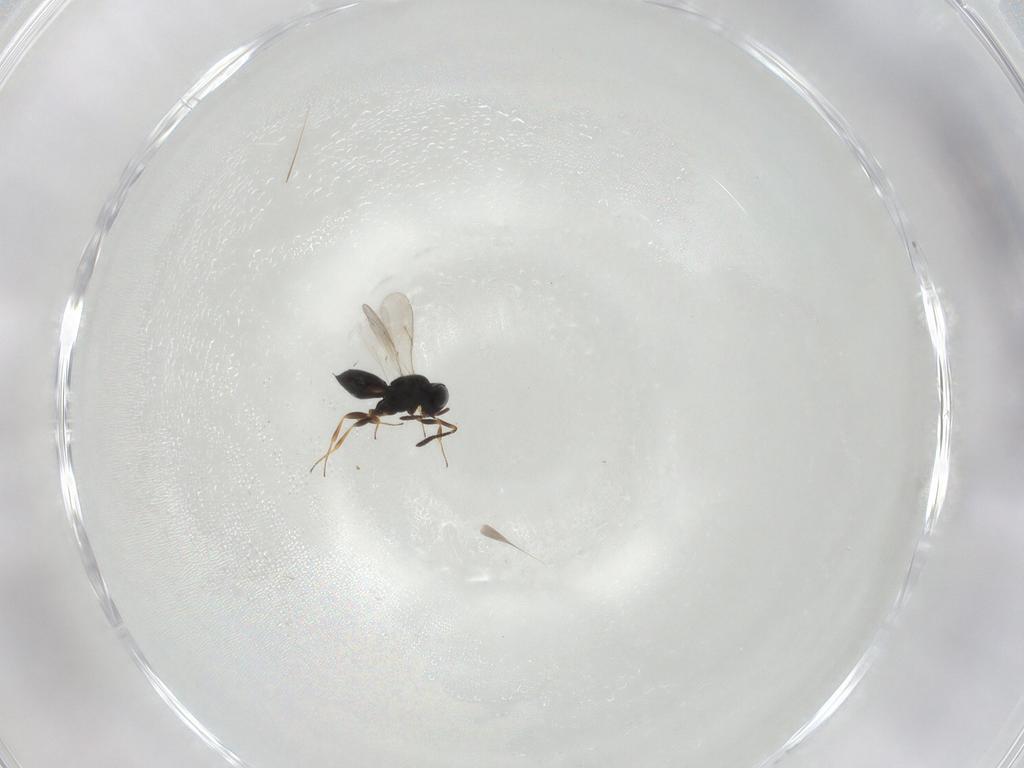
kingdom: Animalia
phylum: Arthropoda
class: Insecta
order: Hymenoptera
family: Scelionidae
